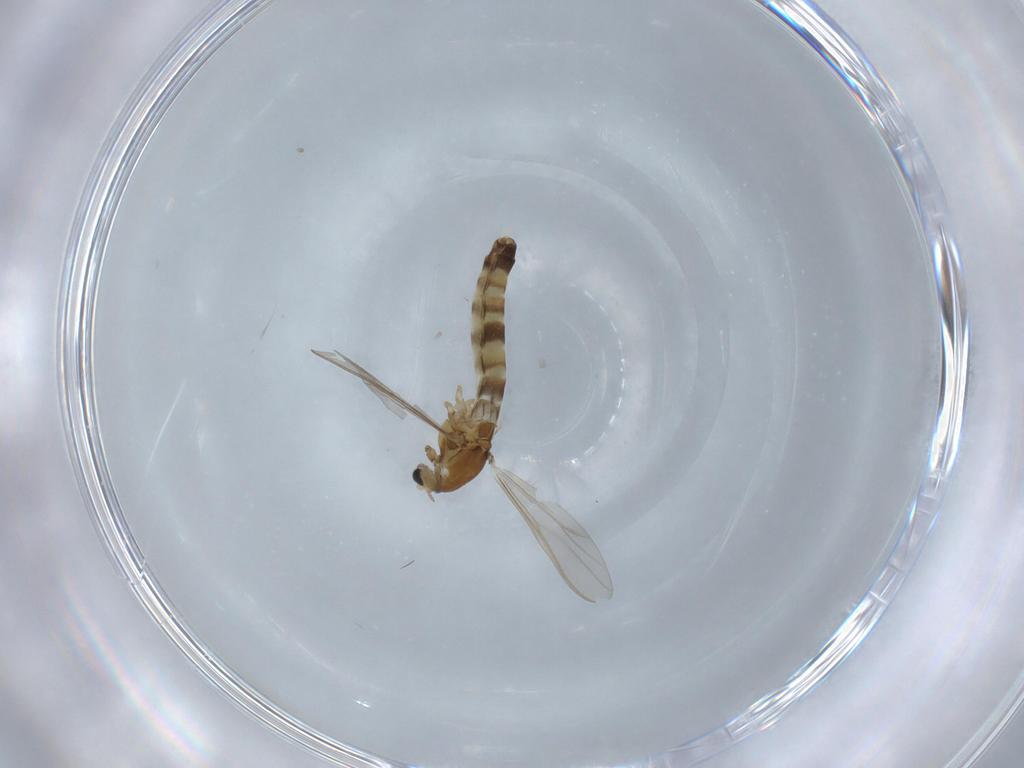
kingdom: Animalia
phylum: Arthropoda
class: Insecta
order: Diptera
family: Chironomidae
